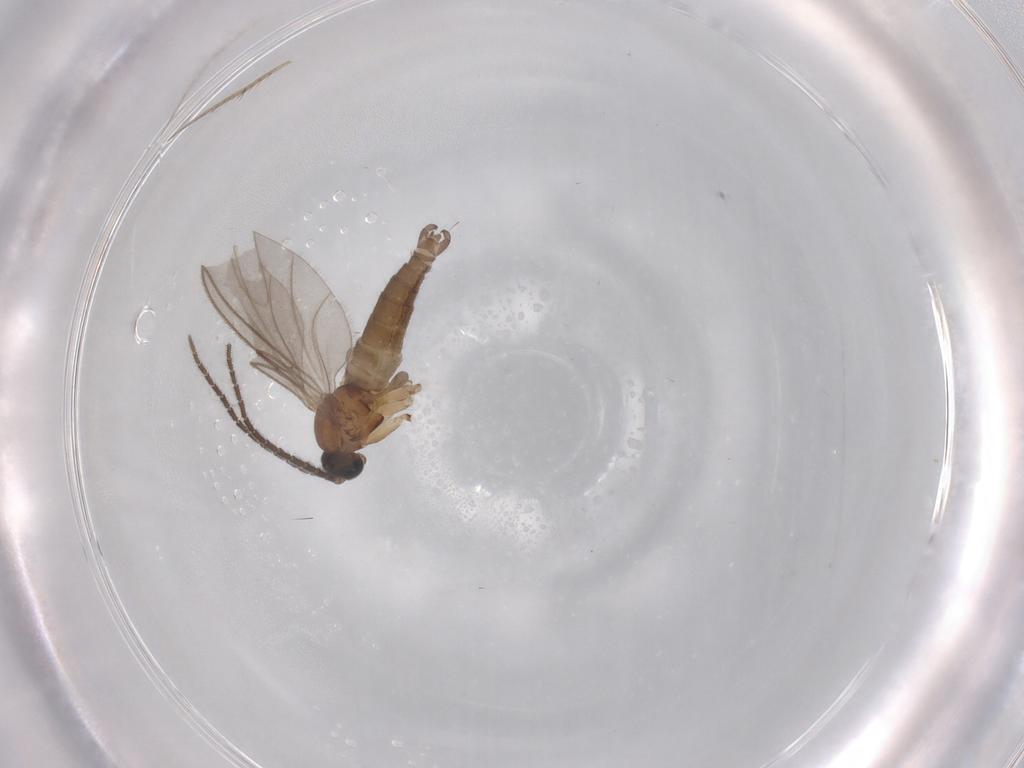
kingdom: Animalia
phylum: Arthropoda
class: Insecta
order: Diptera
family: Sciaridae
